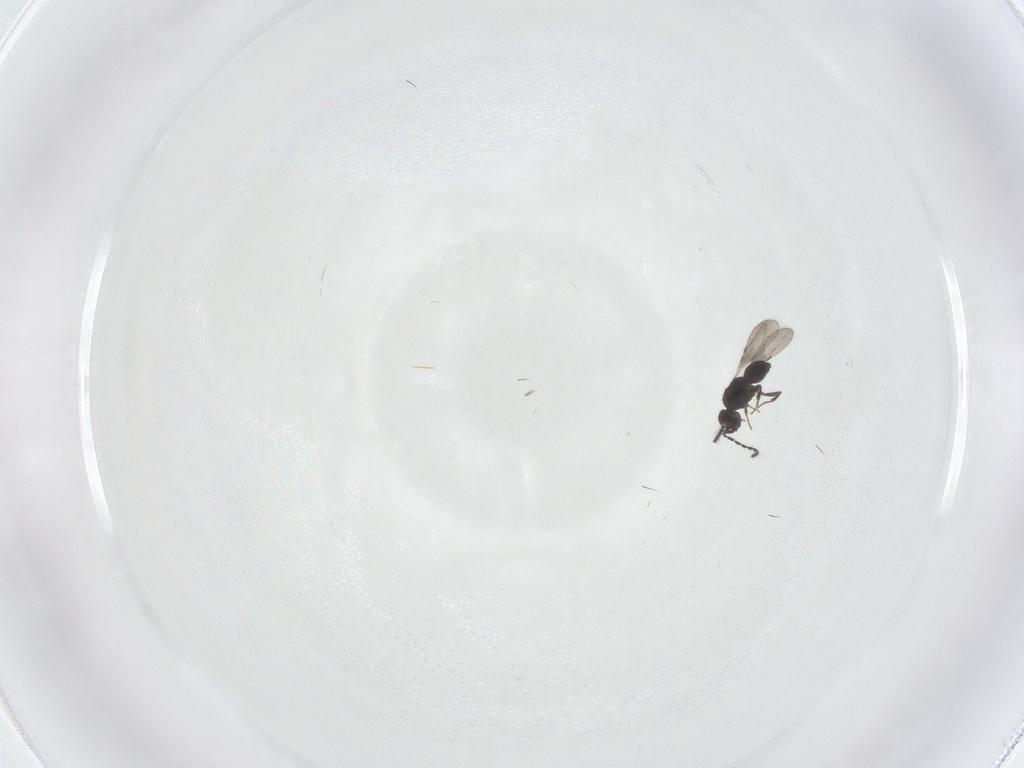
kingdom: Animalia
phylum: Arthropoda
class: Insecta
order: Hymenoptera
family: Ceraphronidae
